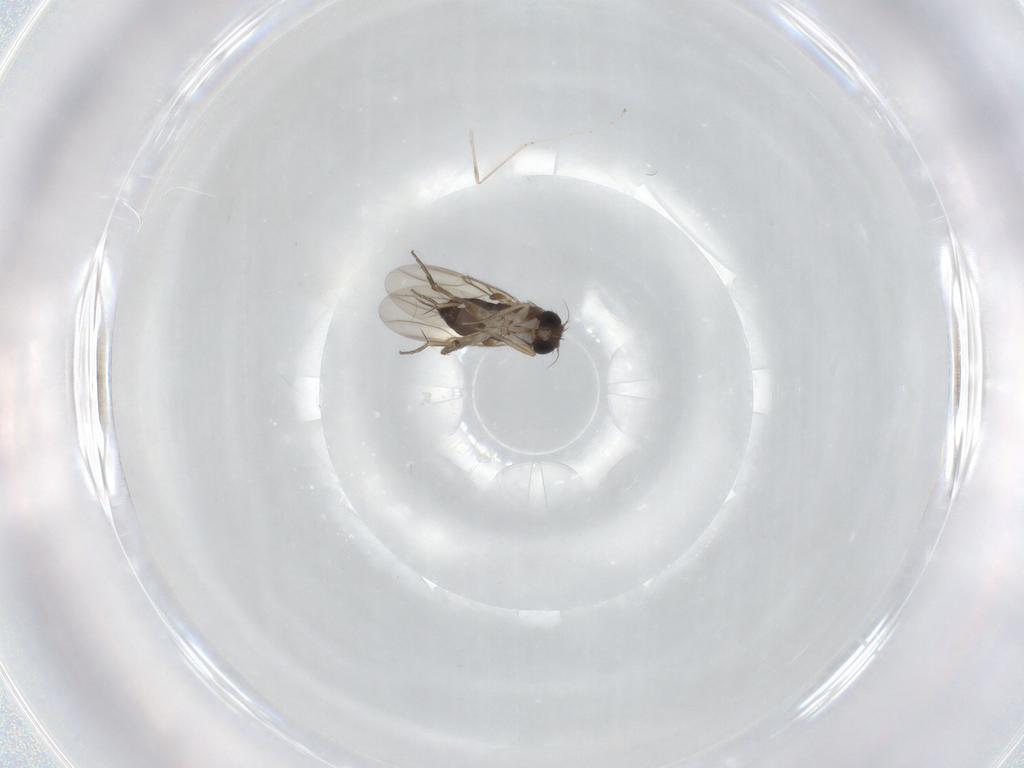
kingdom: Animalia
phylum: Arthropoda
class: Insecta
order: Diptera
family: Phoridae
